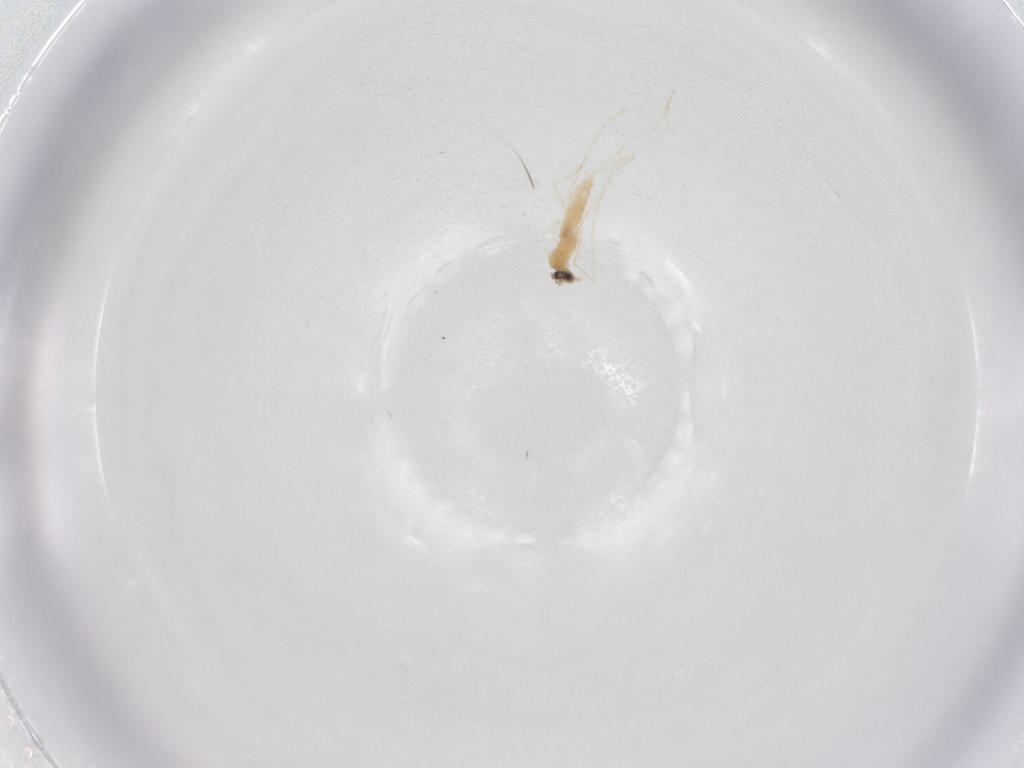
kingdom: Animalia
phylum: Arthropoda
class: Insecta
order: Diptera
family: Cecidomyiidae
